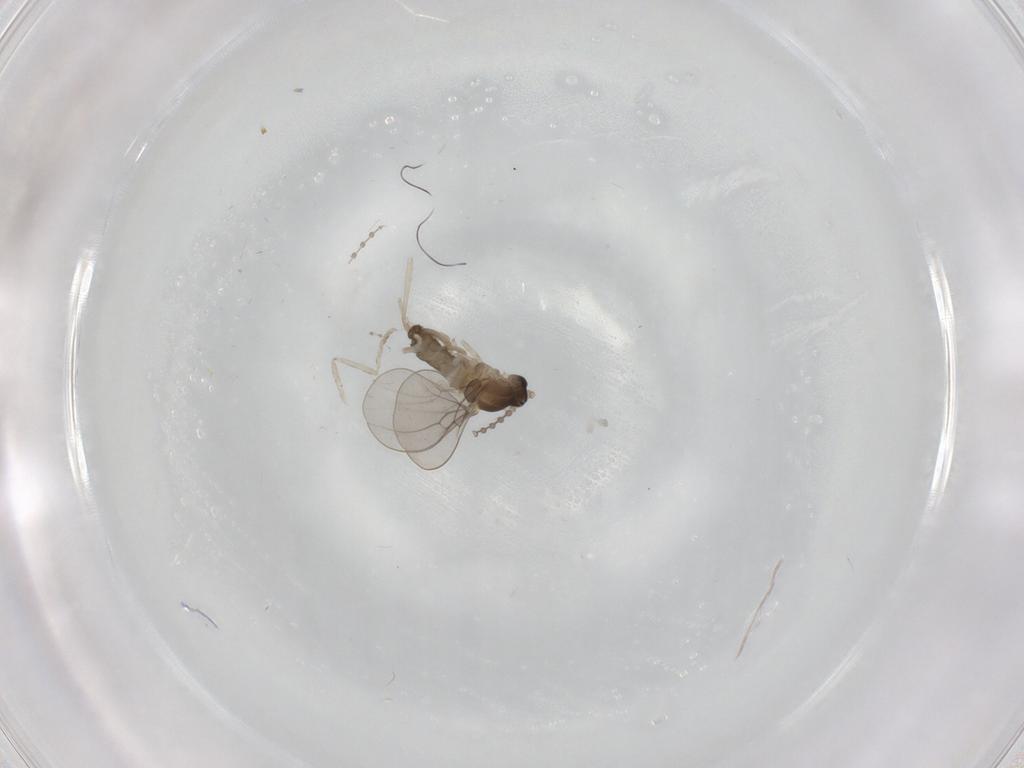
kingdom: Animalia
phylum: Arthropoda
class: Insecta
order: Diptera
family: Cecidomyiidae
